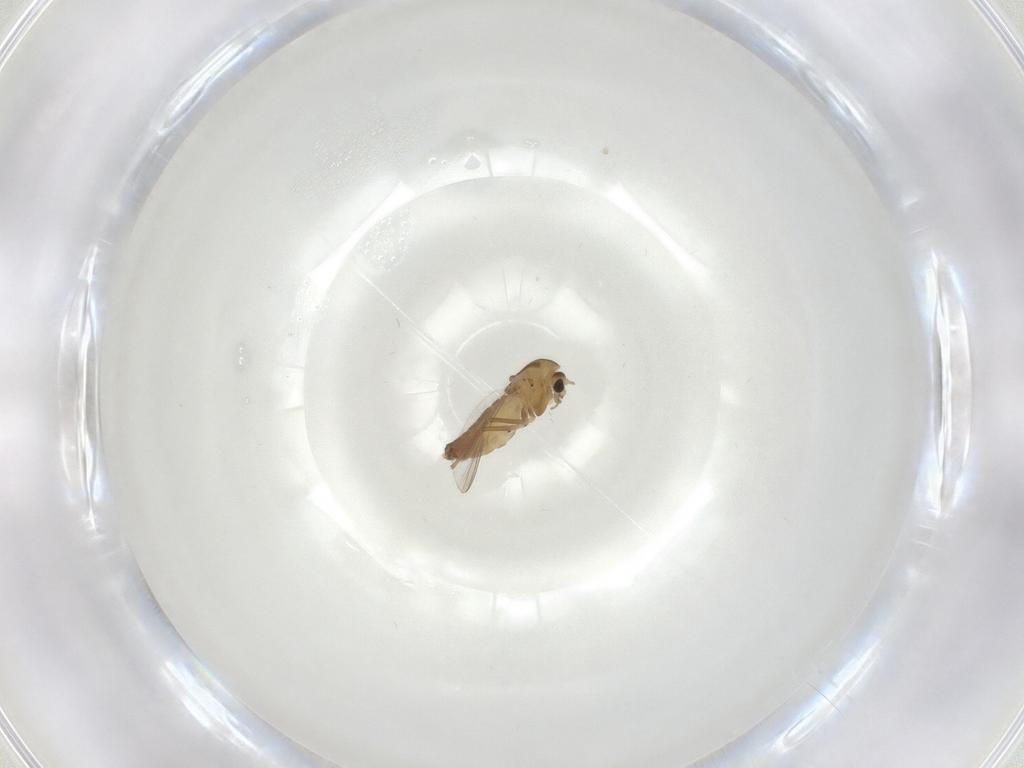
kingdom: Animalia
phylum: Arthropoda
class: Insecta
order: Diptera
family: Chironomidae
